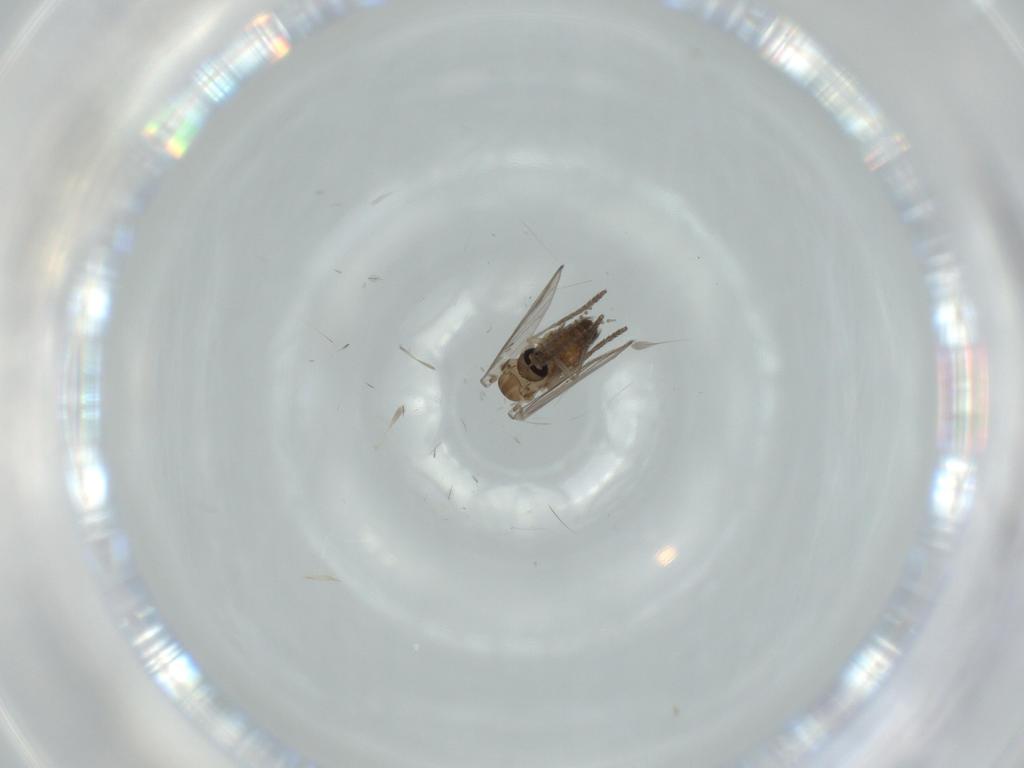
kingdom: Animalia
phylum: Arthropoda
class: Insecta
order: Diptera
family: Psychodidae
